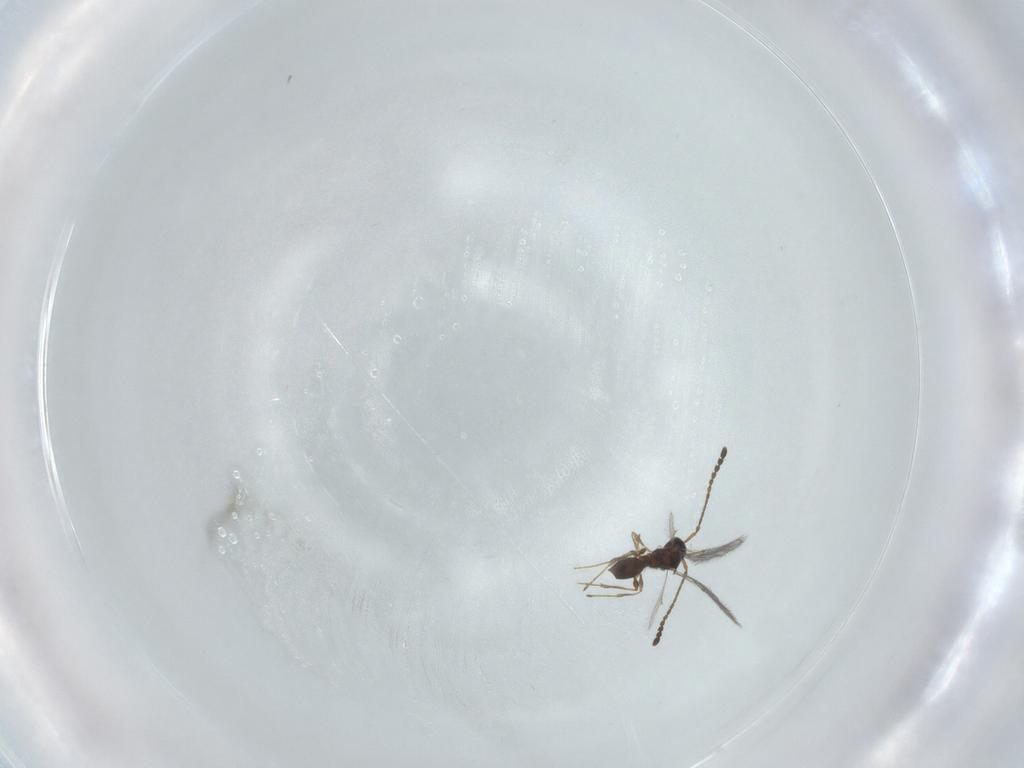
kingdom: Animalia
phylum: Arthropoda
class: Insecta
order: Hymenoptera
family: Diapriidae
